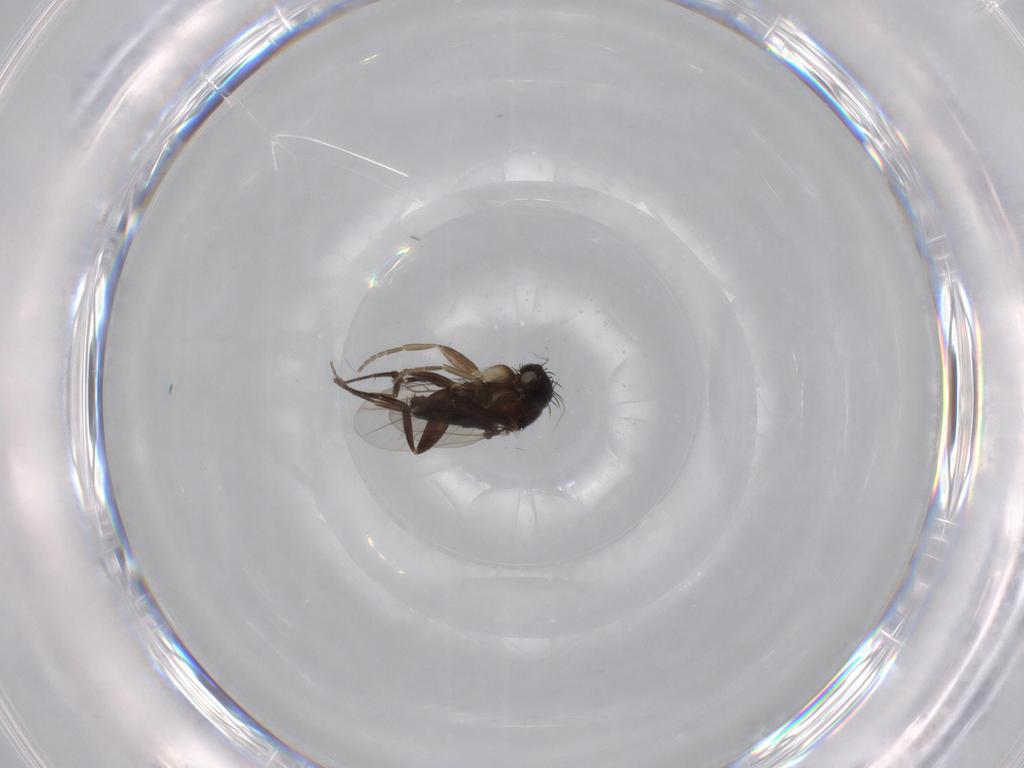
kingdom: Animalia
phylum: Arthropoda
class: Insecta
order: Diptera
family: Phoridae
